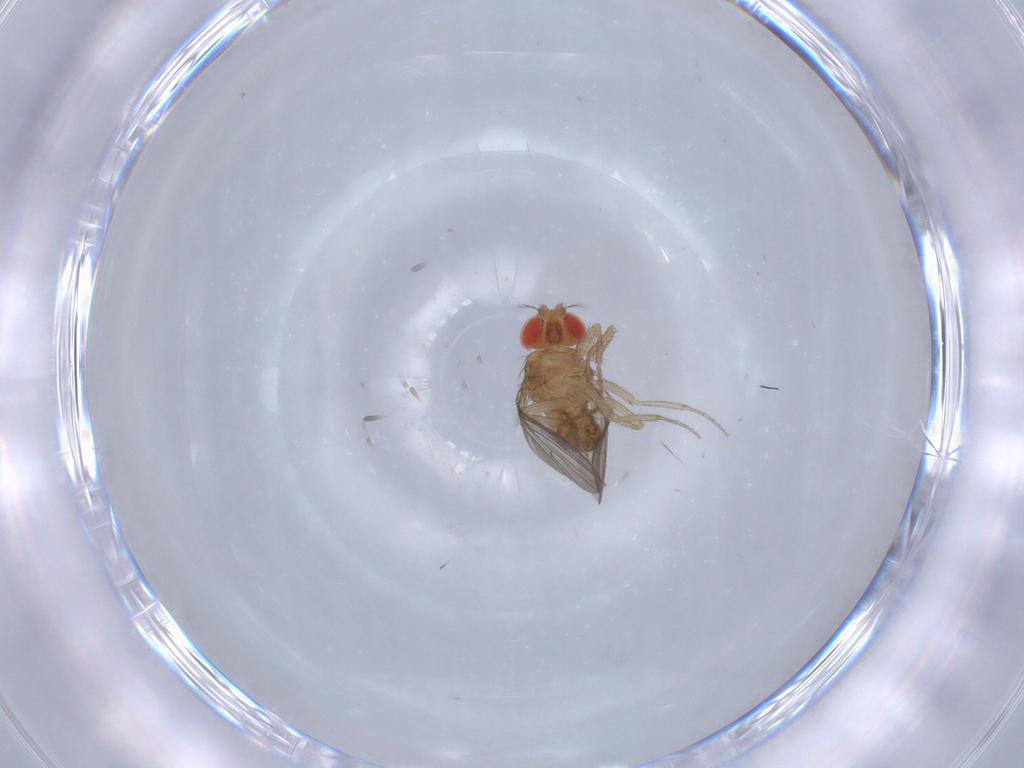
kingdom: Animalia
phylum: Arthropoda
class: Insecta
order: Diptera
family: Drosophilidae
